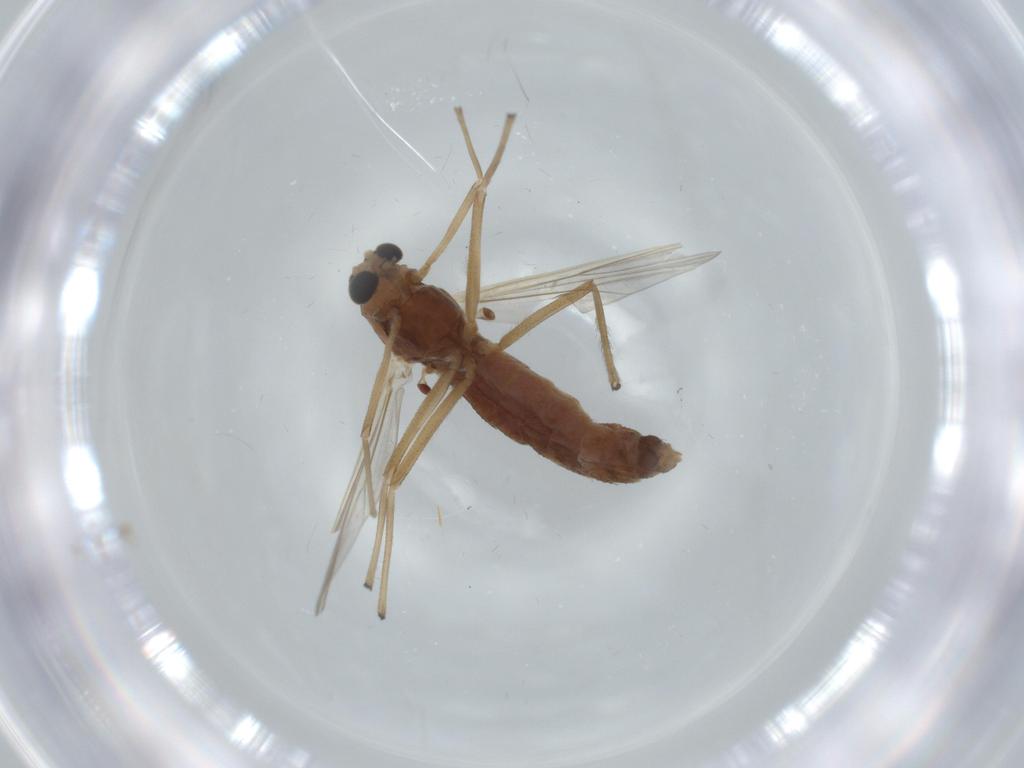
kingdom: Animalia
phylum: Arthropoda
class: Insecta
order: Diptera
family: Chironomidae
